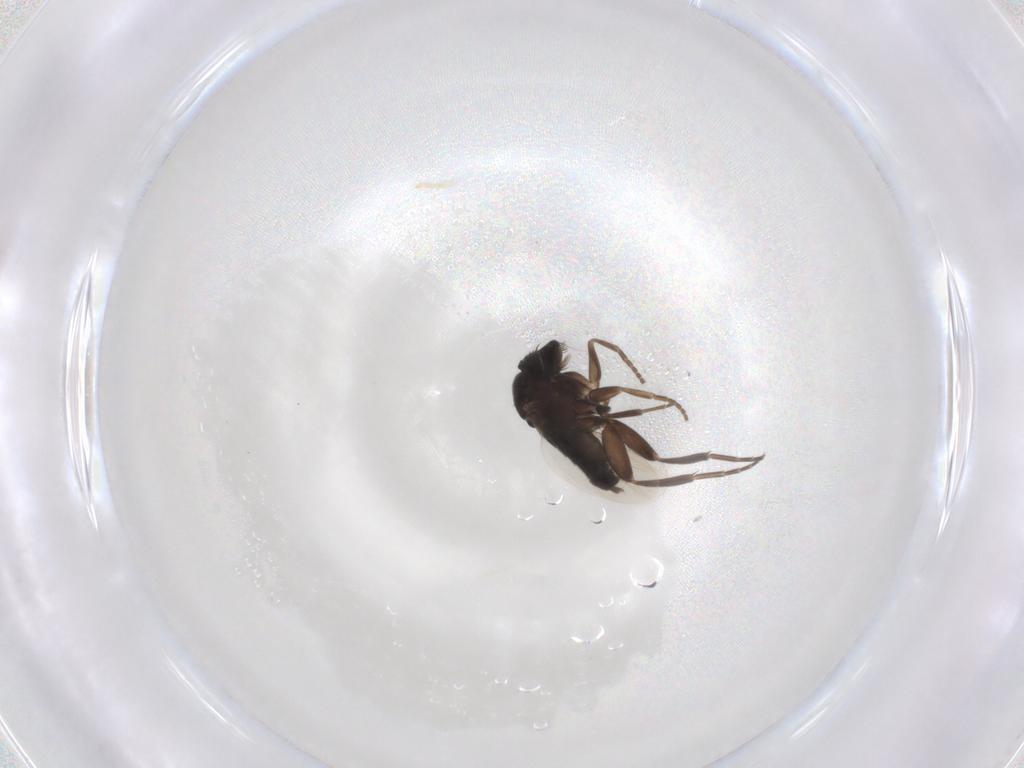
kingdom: Animalia
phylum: Arthropoda
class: Insecta
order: Diptera
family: Phoridae
